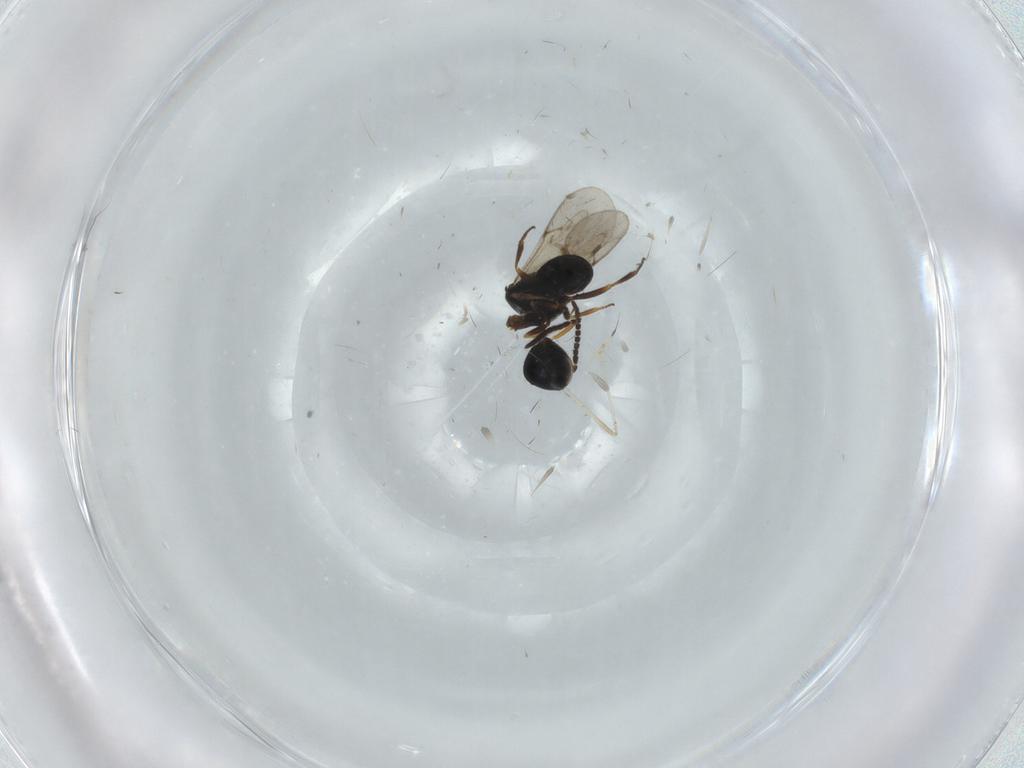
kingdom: Animalia
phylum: Arthropoda
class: Insecta
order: Hymenoptera
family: Scelionidae
